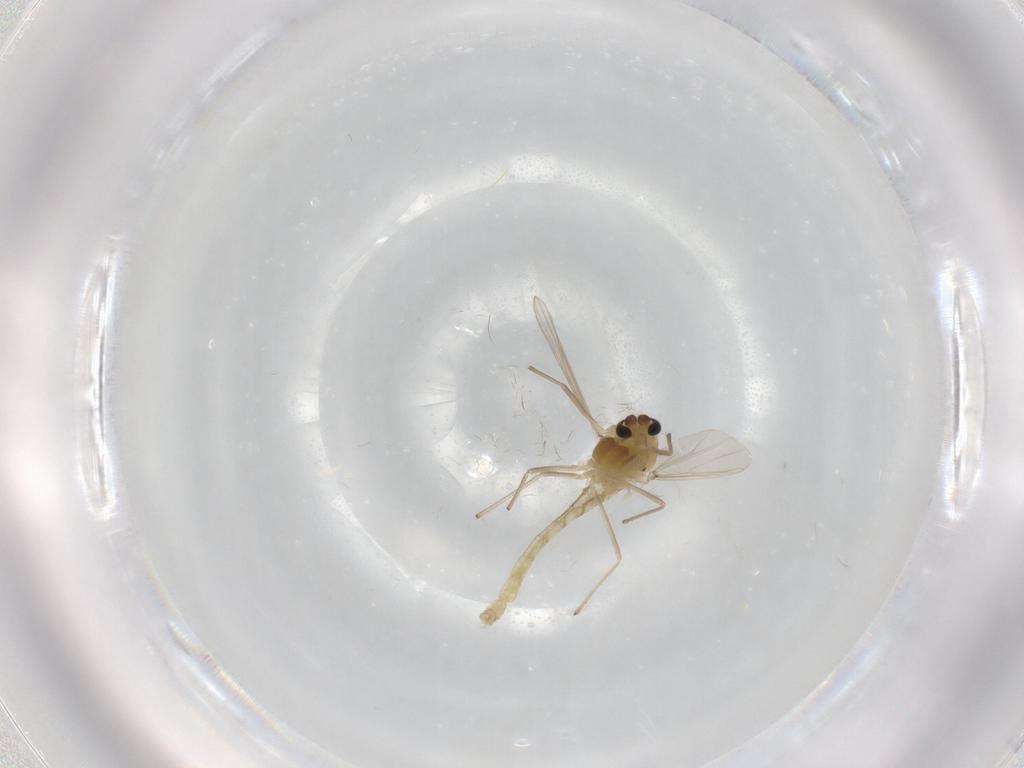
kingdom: Animalia
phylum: Arthropoda
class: Insecta
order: Diptera
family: Chironomidae
